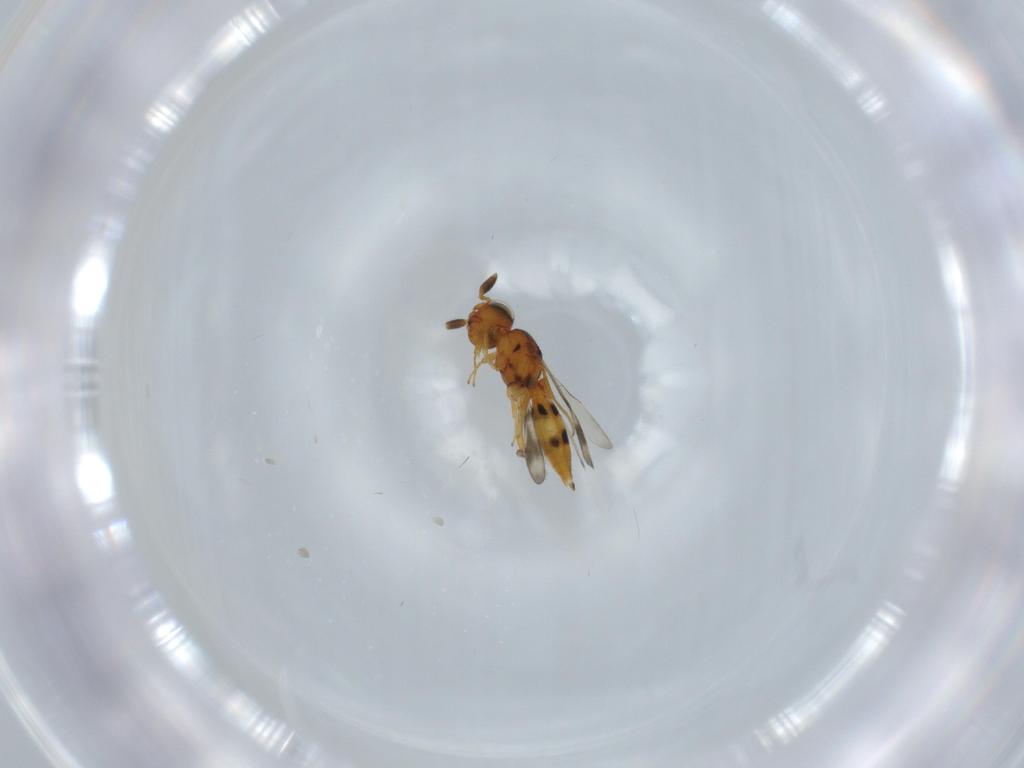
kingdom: Animalia
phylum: Arthropoda
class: Insecta
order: Hymenoptera
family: Scelionidae
